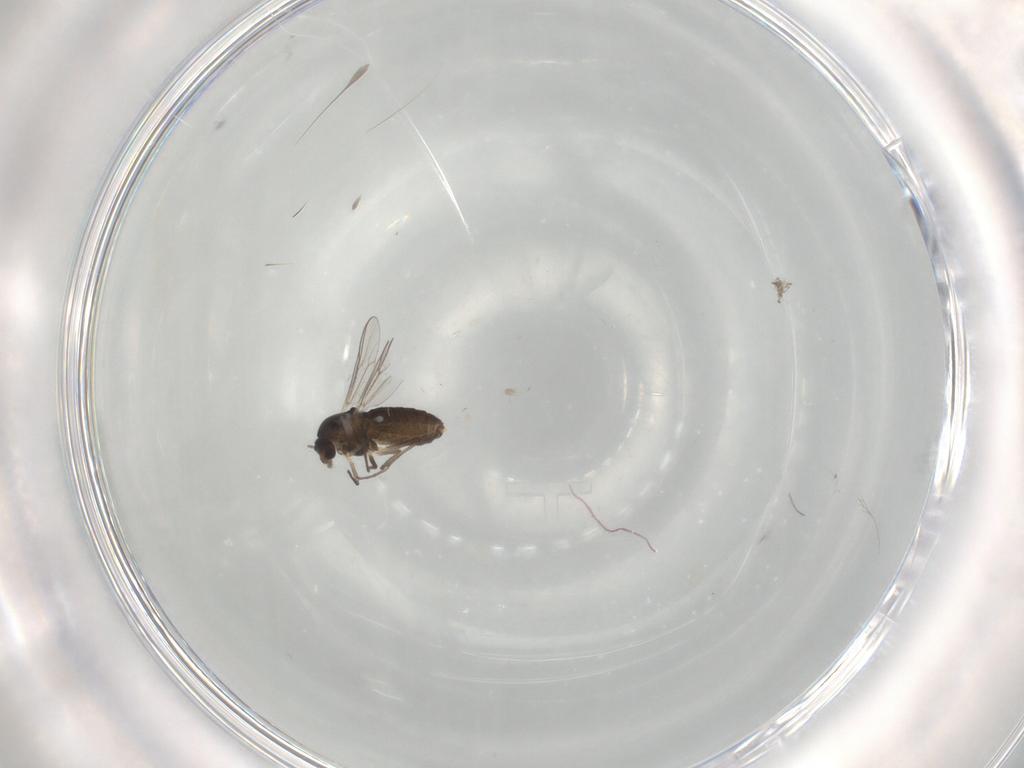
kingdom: Animalia
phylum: Arthropoda
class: Insecta
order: Diptera
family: Chironomidae
